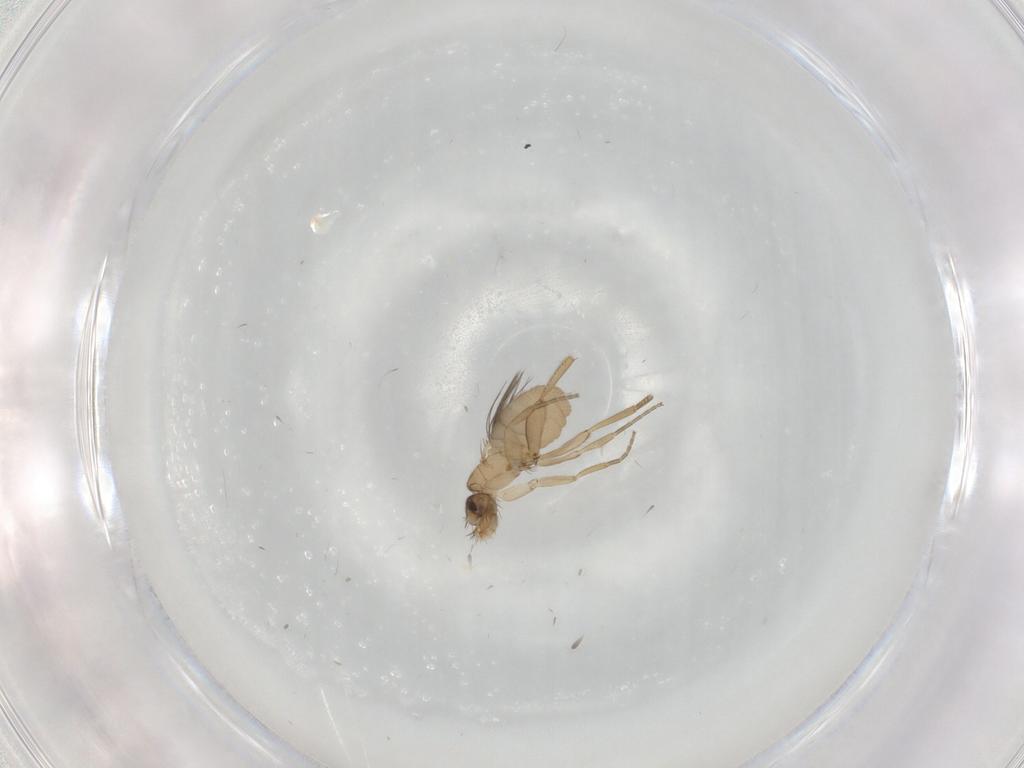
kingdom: Animalia
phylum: Arthropoda
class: Insecta
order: Diptera
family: Phoridae
